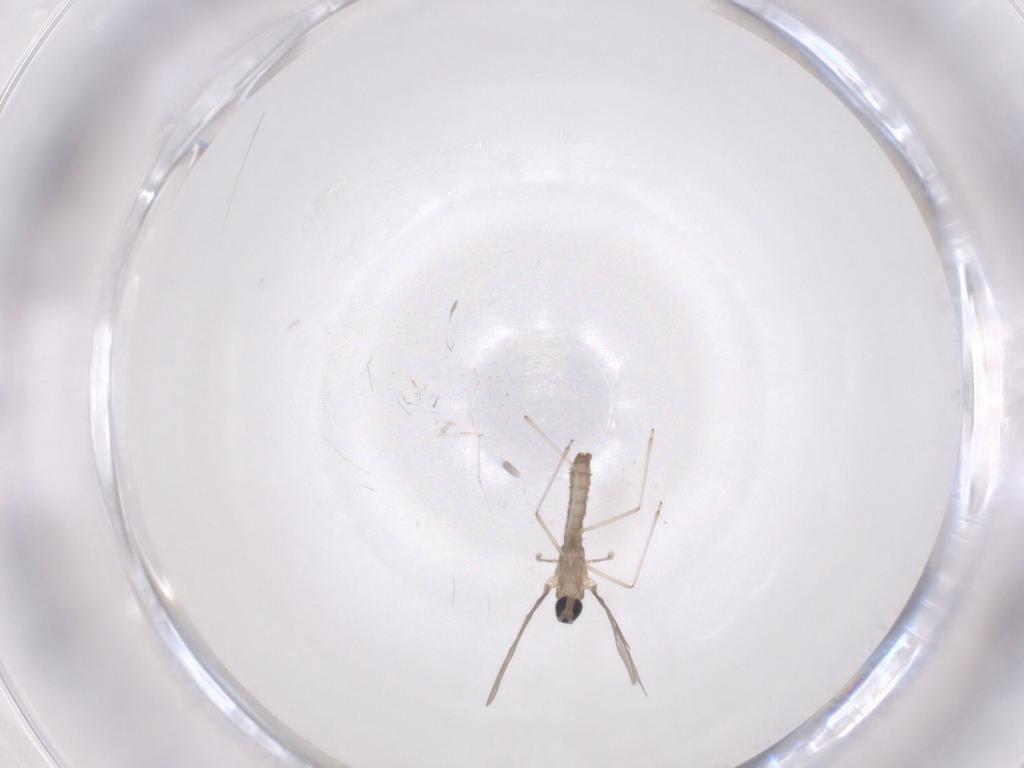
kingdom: Animalia
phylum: Arthropoda
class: Insecta
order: Diptera
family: Cecidomyiidae
